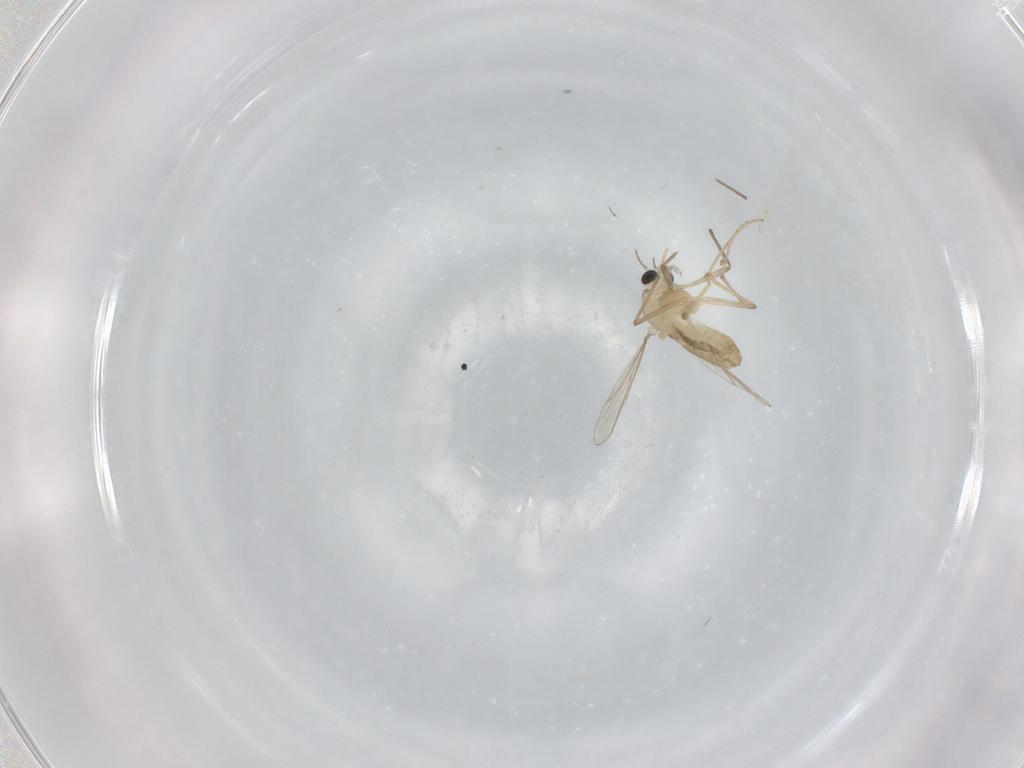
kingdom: Animalia
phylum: Arthropoda
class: Insecta
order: Diptera
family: Chironomidae
